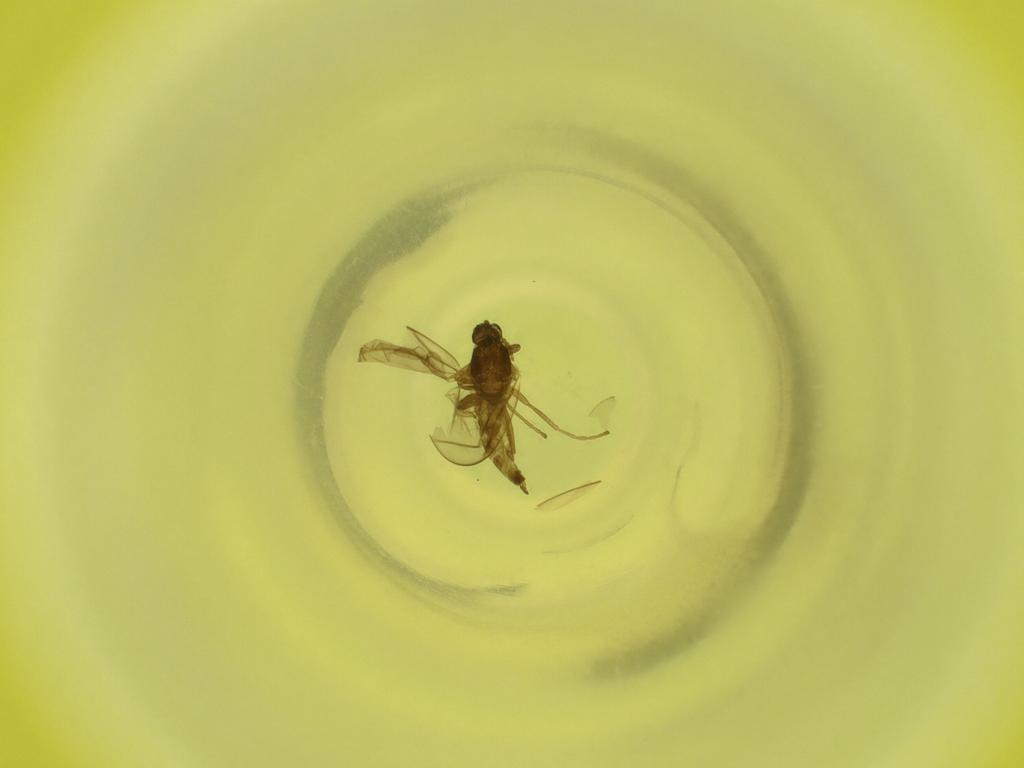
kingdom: Animalia
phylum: Arthropoda
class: Insecta
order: Diptera
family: Cecidomyiidae
